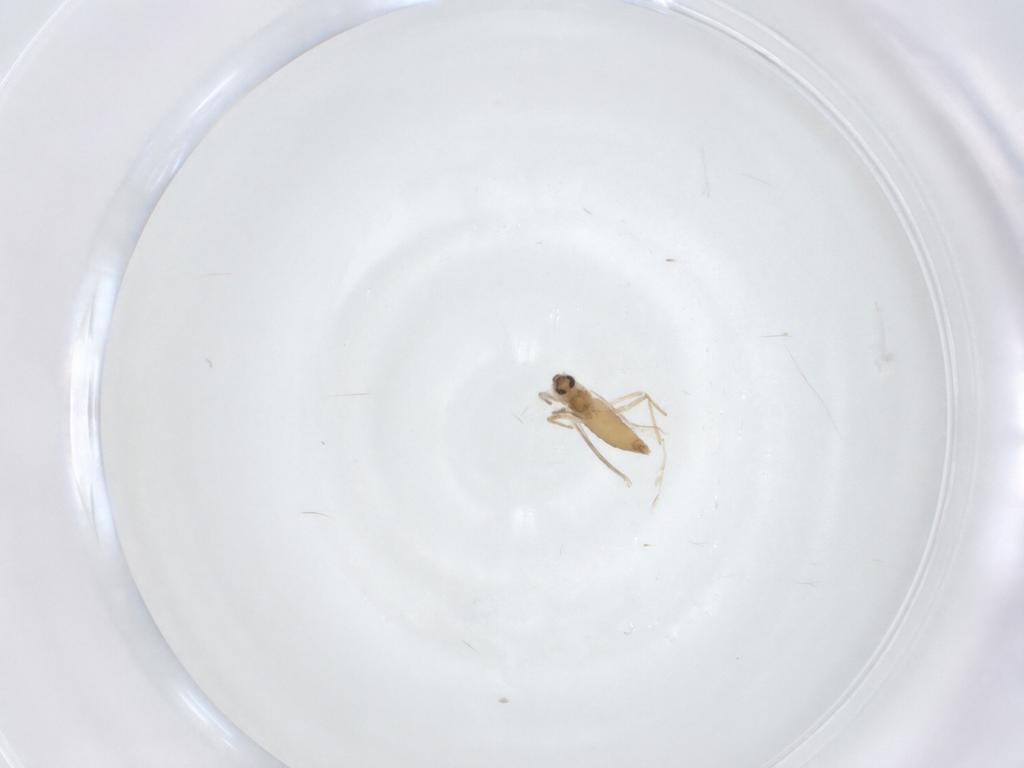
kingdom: Animalia
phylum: Arthropoda
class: Insecta
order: Diptera
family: Chironomidae
